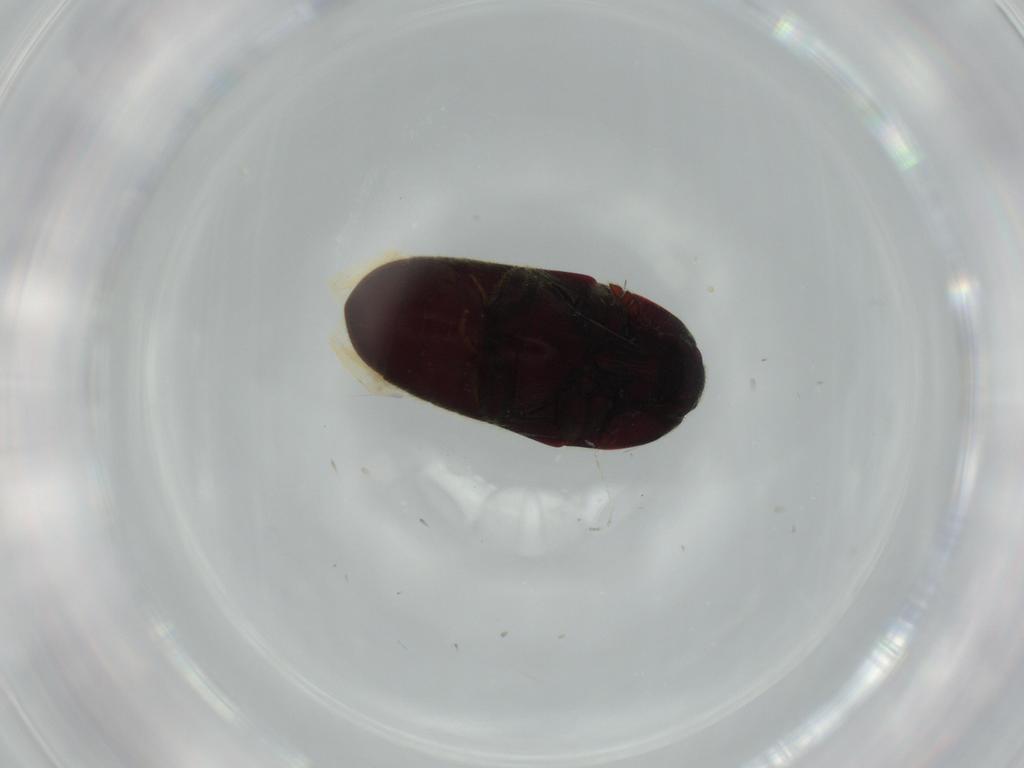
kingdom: Animalia
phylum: Arthropoda
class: Insecta
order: Coleoptera
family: Throscidae
